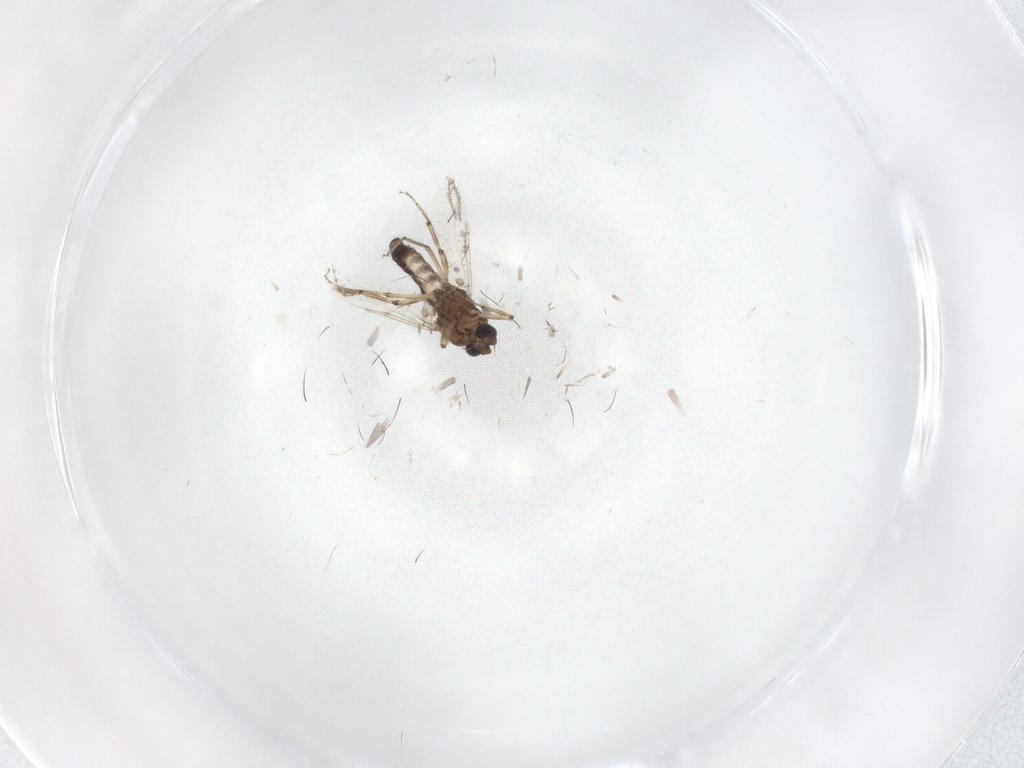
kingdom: Animalia
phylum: Arthropoda
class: Insecta
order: Diptera
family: Ceratopogonidae
